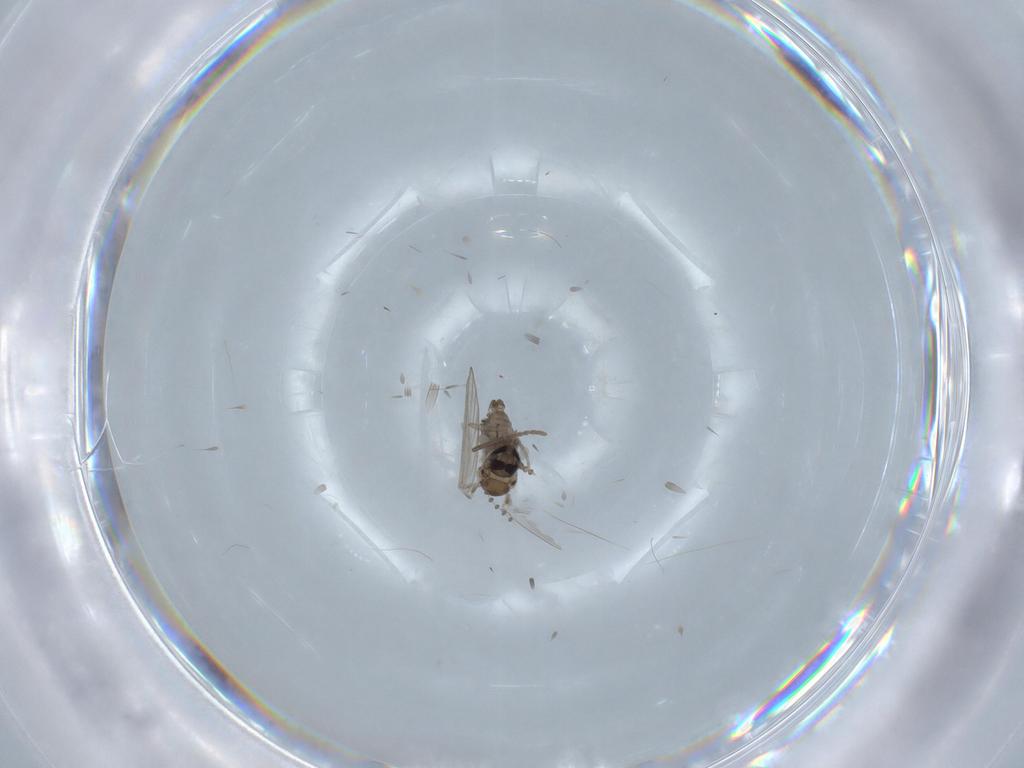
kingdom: Animalia
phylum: Arthropoda
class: Insecta
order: Diptera
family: Psychodidae
